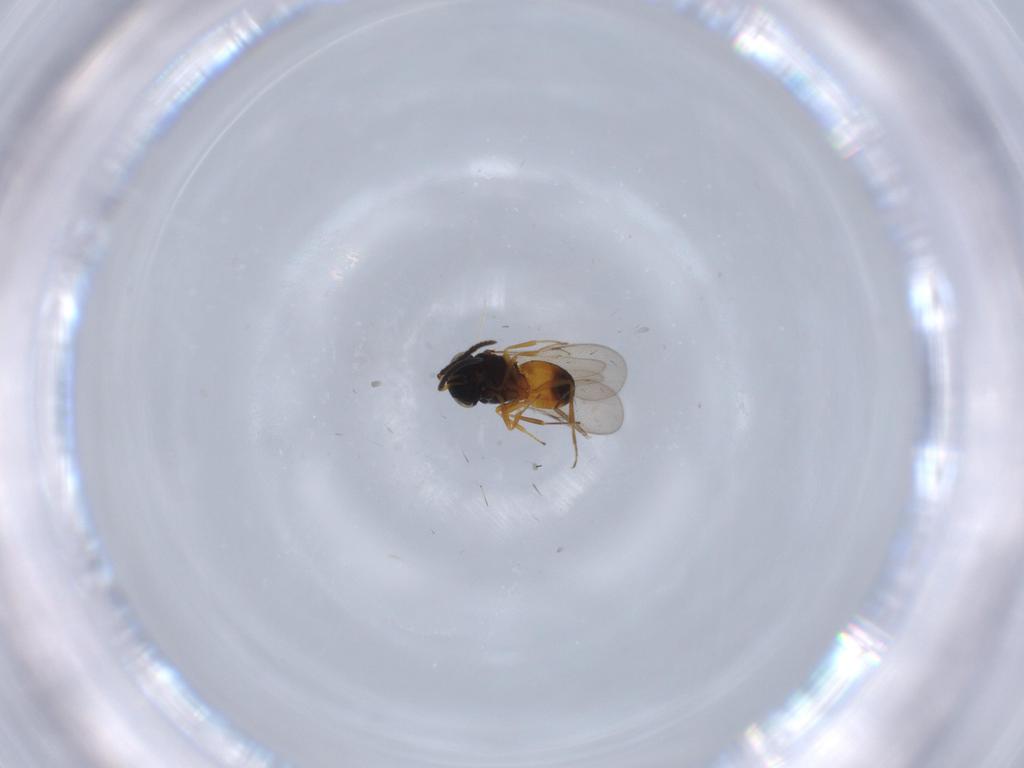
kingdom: Animalia
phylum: Arthropoda
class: Insecta
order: Hymenoptera
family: Scelionidae
